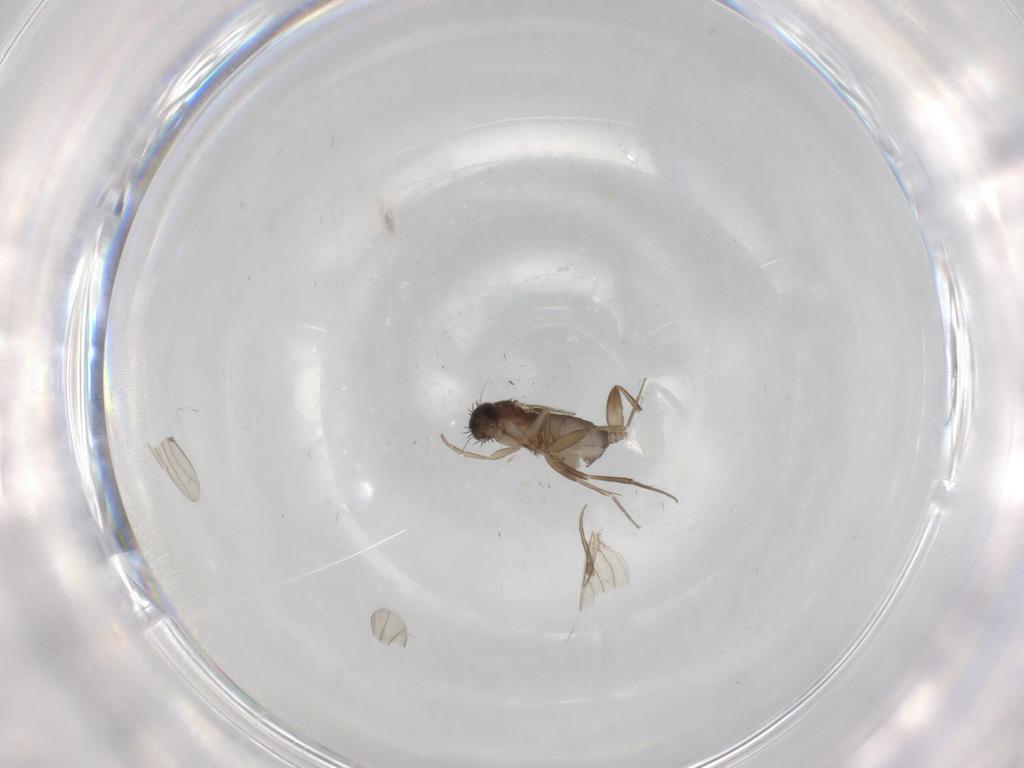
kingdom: Animalia
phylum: Arthropoda
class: Insecta
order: Diptera
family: Phoridae
